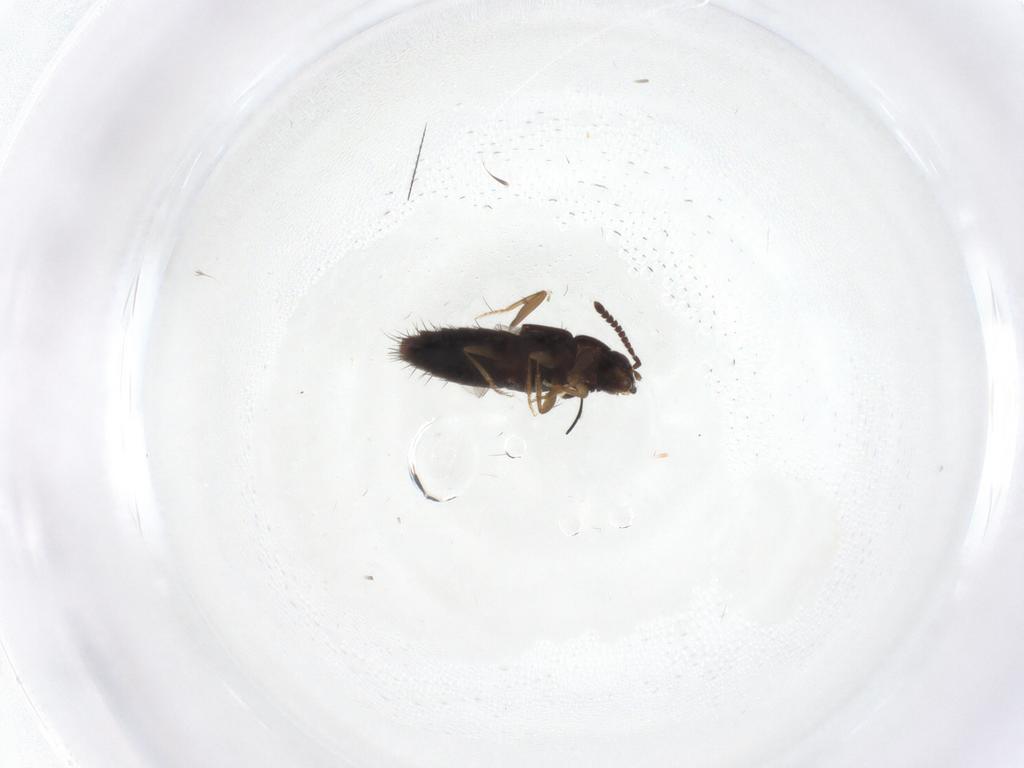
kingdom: Animalia
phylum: Arthropoda
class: Insecta
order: Coleoptera
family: Staphylinidae
